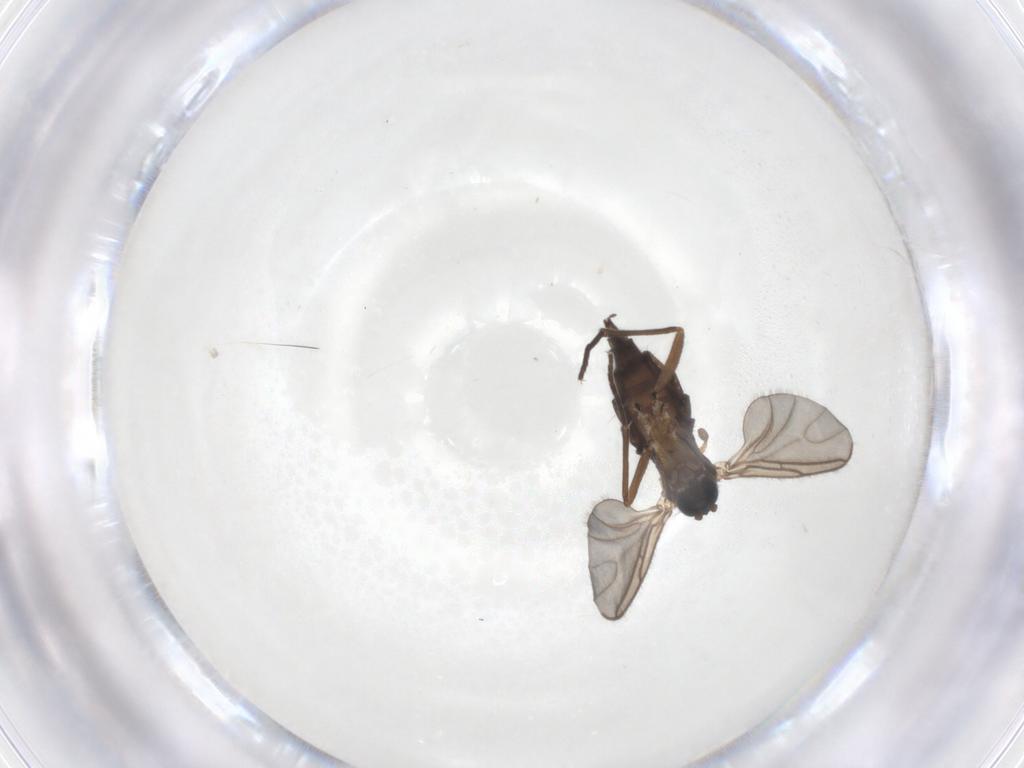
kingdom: Animalia
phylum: Arthropoda
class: Insecta
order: Diptera
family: Sciaridae
